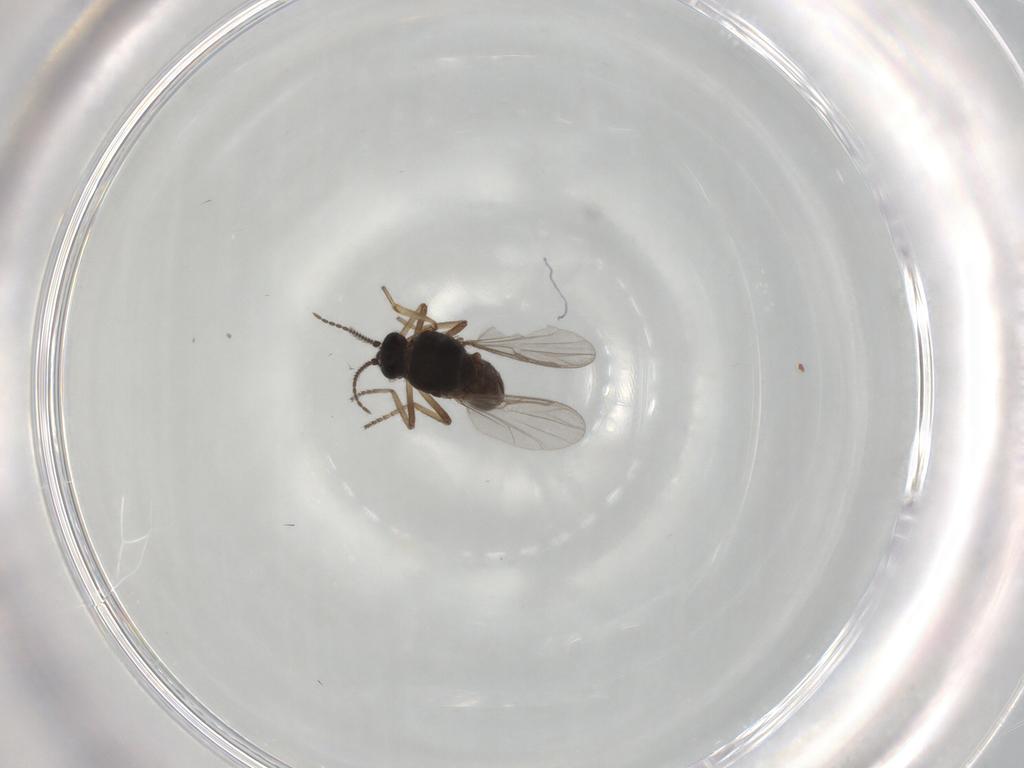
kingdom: Animalia
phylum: Arthropoda
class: Insecta
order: Diptera
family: Ceratopogonidae
